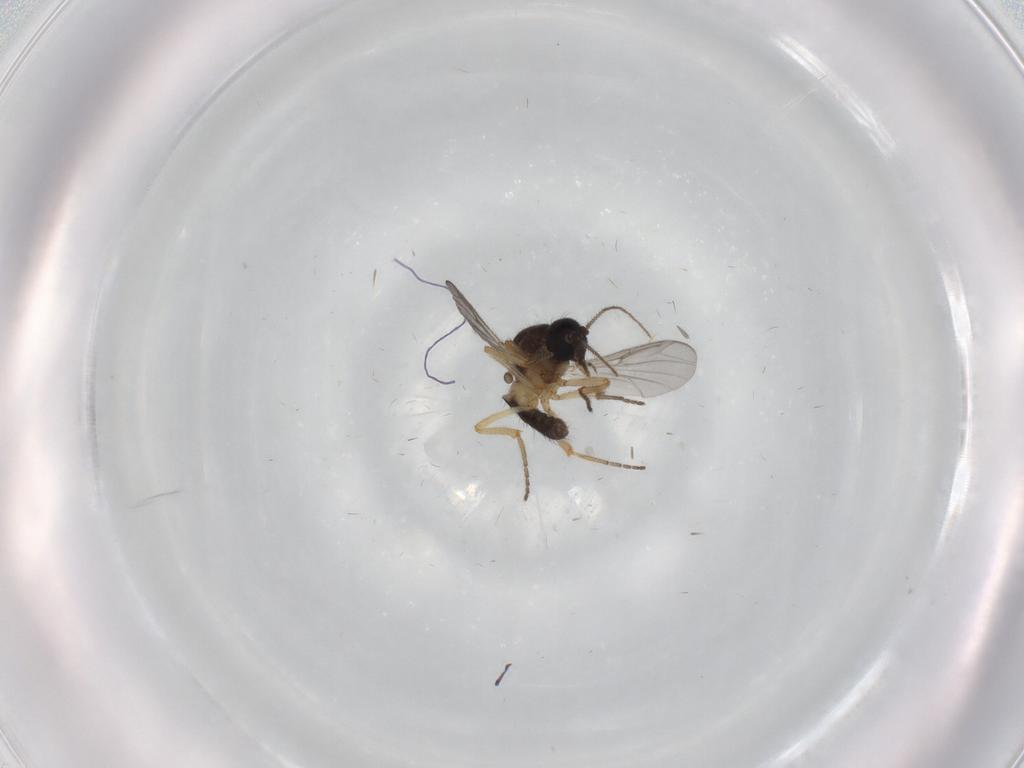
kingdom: Animalia
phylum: Arthropoda
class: Insecta
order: Diptera
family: Ceratopogonidae
